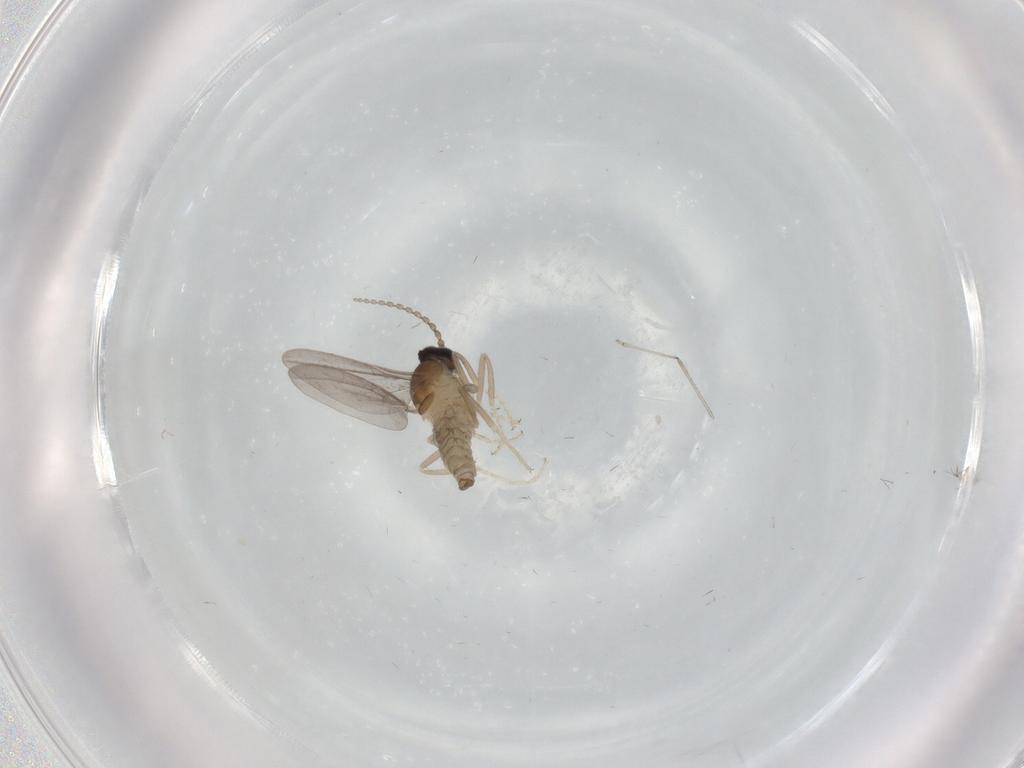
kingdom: Animalia
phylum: Arthropoda
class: Insecta
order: Diptera
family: Cecidomyiidae
